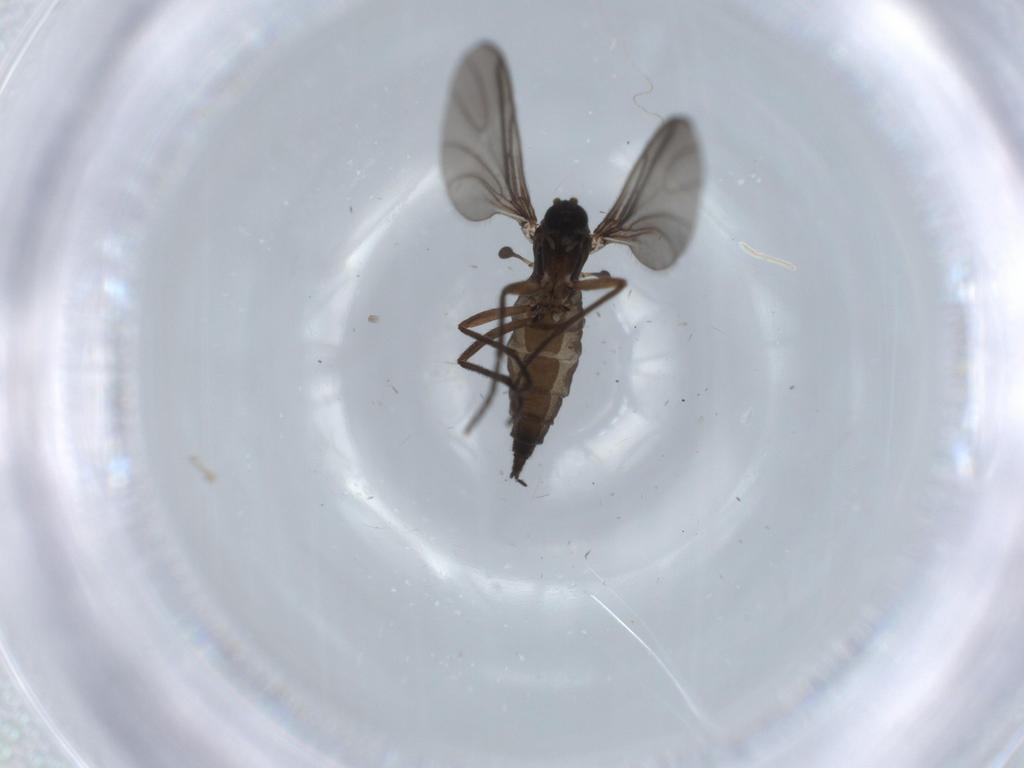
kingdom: Animalia
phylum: Arthropoda
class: Insecta
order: Diptera
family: Sciaridae
